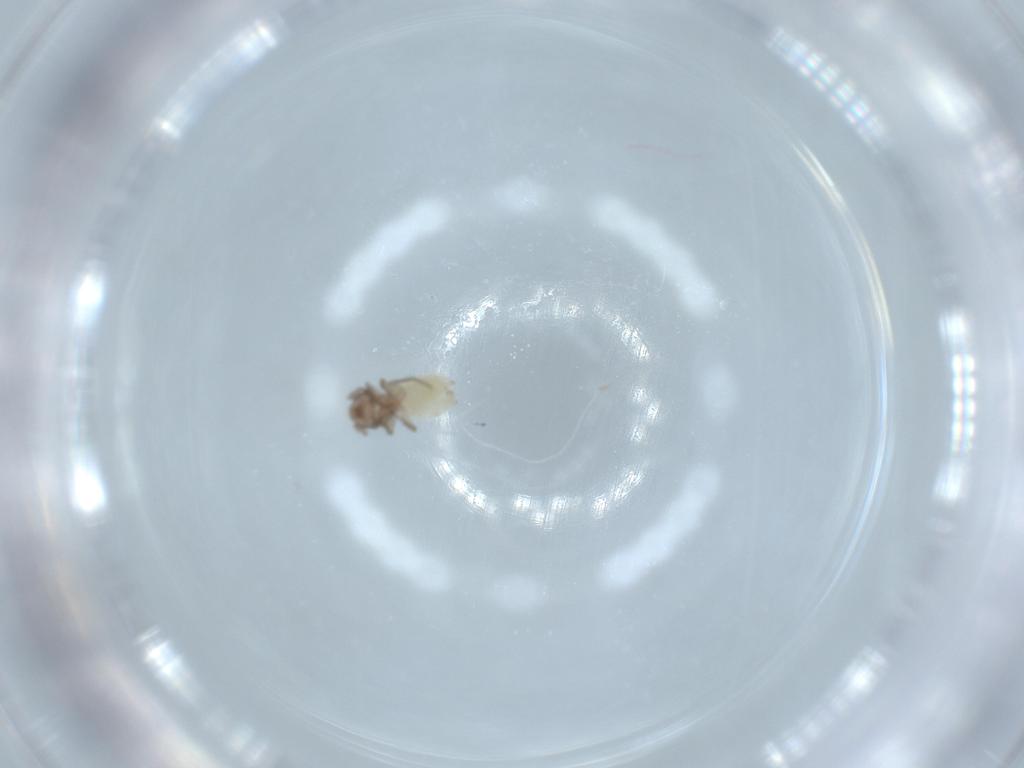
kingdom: Animalia
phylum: Arthropoda
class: Insecta
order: Psocodea
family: Lepidopsocidae
